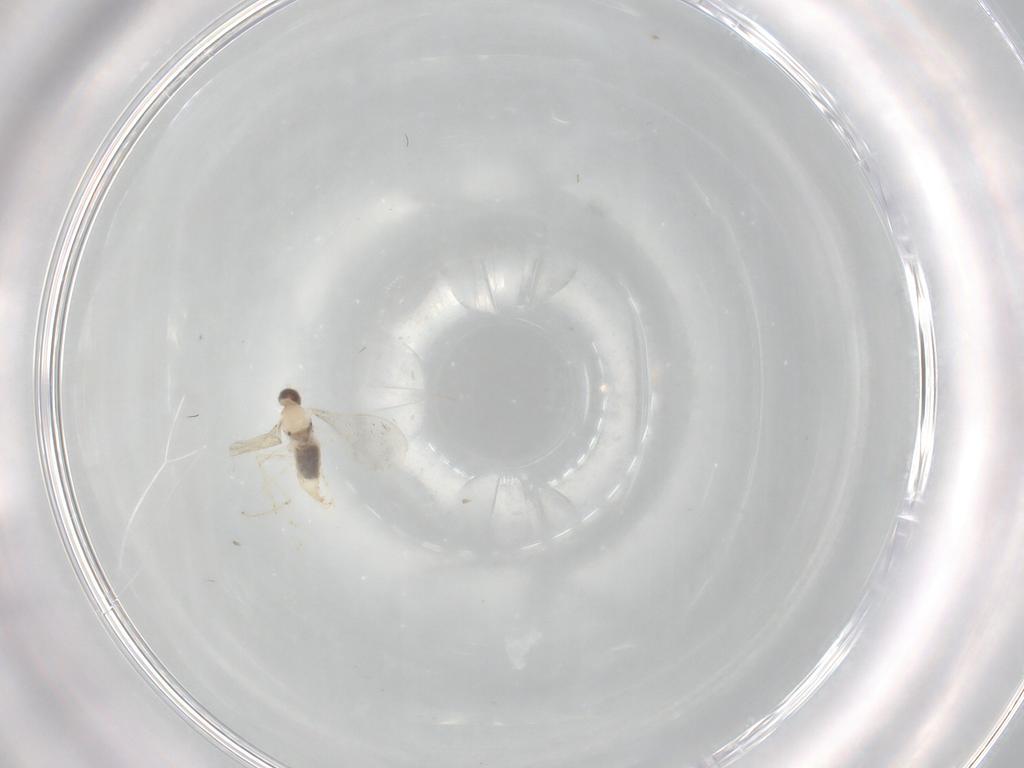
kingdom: Animalia
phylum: Arthropoda
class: Insecta
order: Diptera
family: Cecidomyiidae
